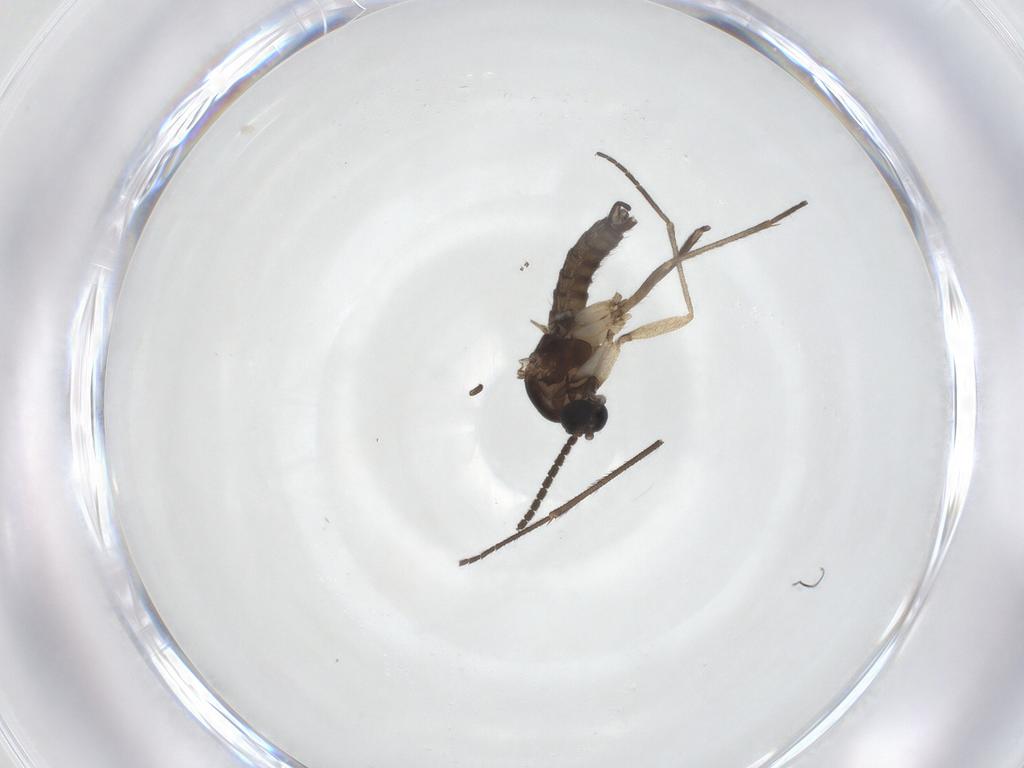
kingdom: Animalia
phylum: Arthropoda
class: Insecta
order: Diptera
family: Sciaridae
